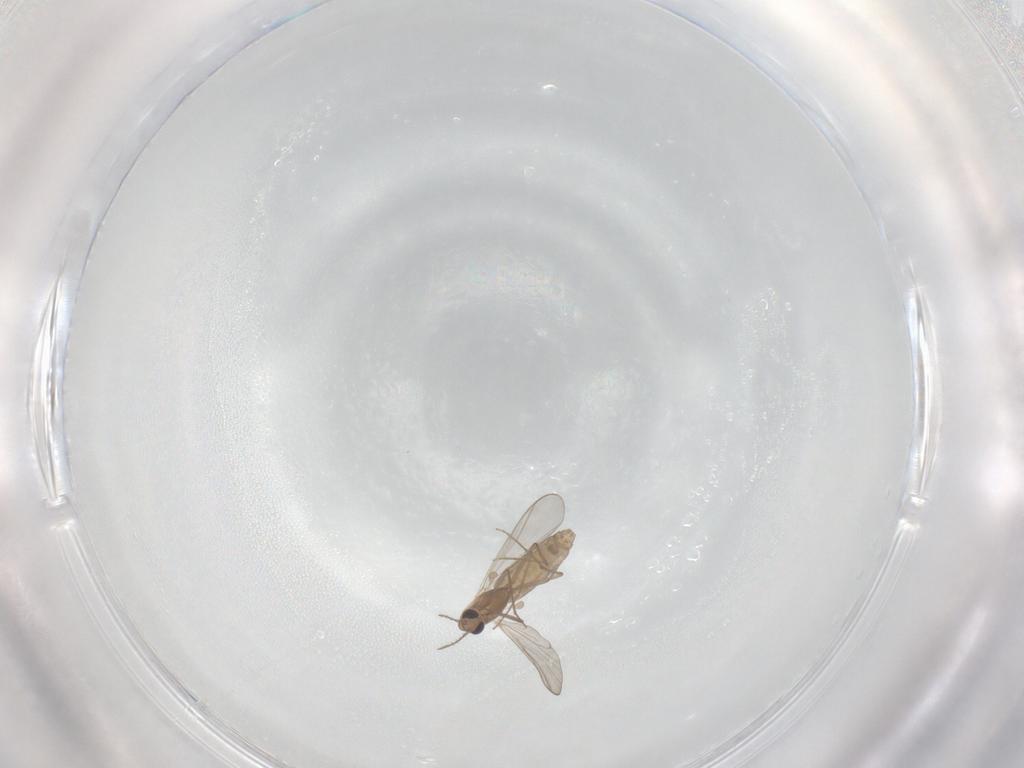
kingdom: Animalia
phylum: Arthropoda
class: Insecta
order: Diptera
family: Chironomidae
